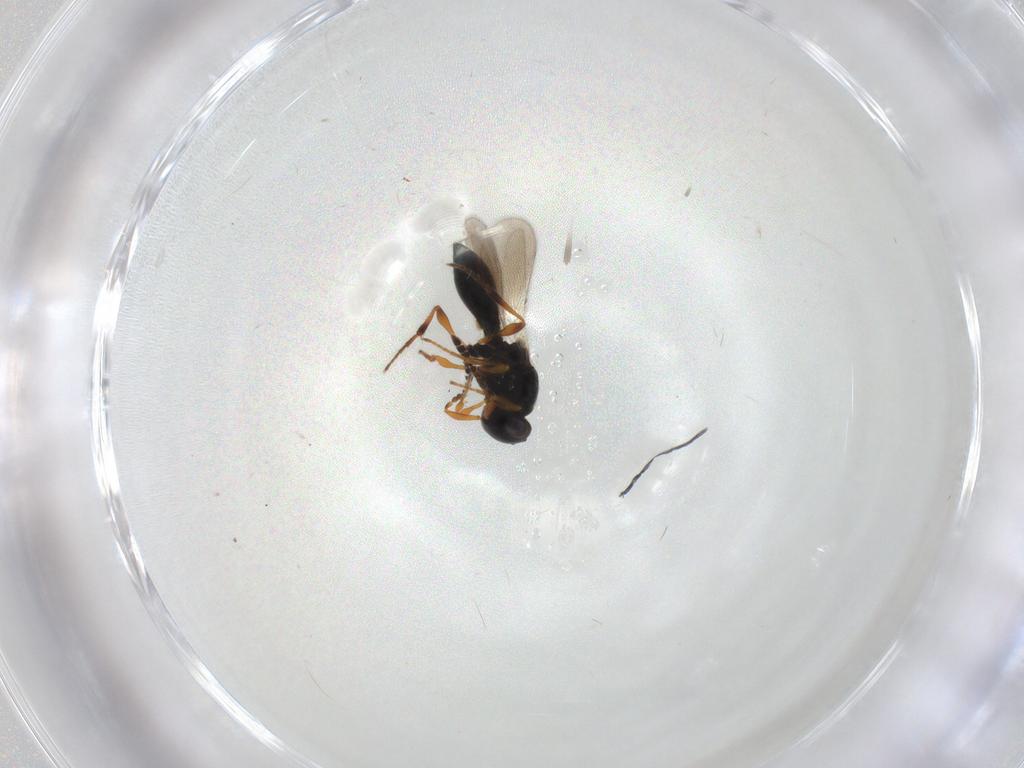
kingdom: Animalia
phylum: Arthropoda
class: Insecta
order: Hymenoptera
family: Platygastridae
